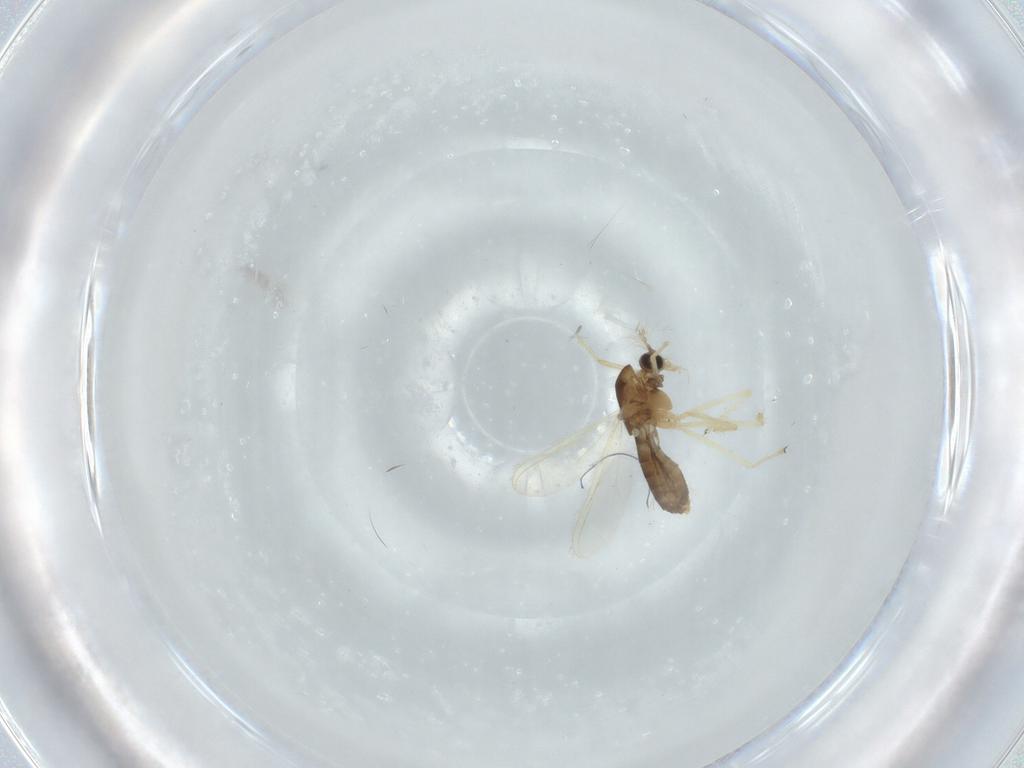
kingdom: Animalia
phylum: Arthropoda
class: Insecta
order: Diptera
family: Chironomidae
